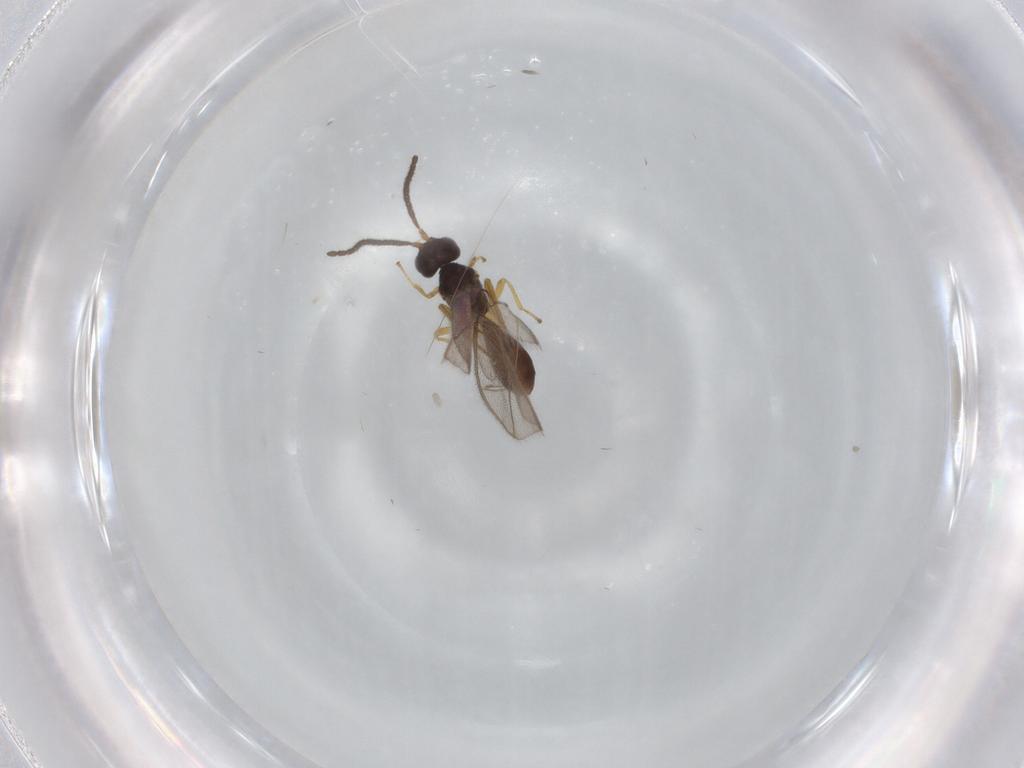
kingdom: Animalia
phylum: Arthropoda
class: Insecta
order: Hymenoptera
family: Braconidae
